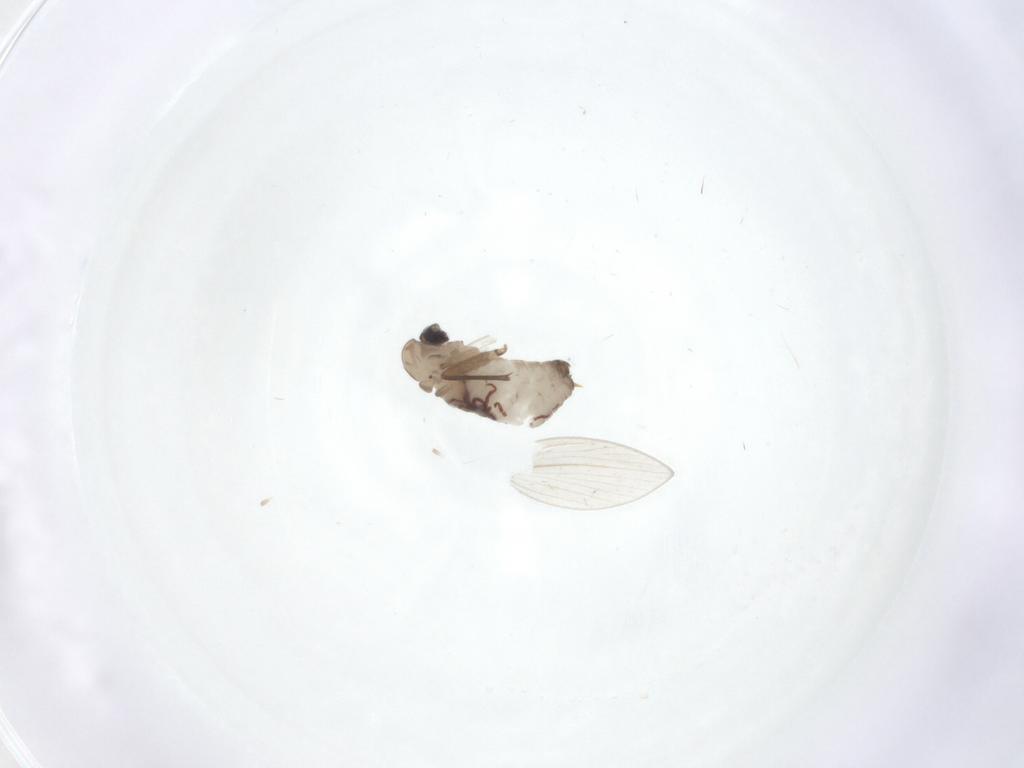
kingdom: Animalia
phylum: Arthropoda
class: Insecta
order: Diptera
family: Psychodidae
